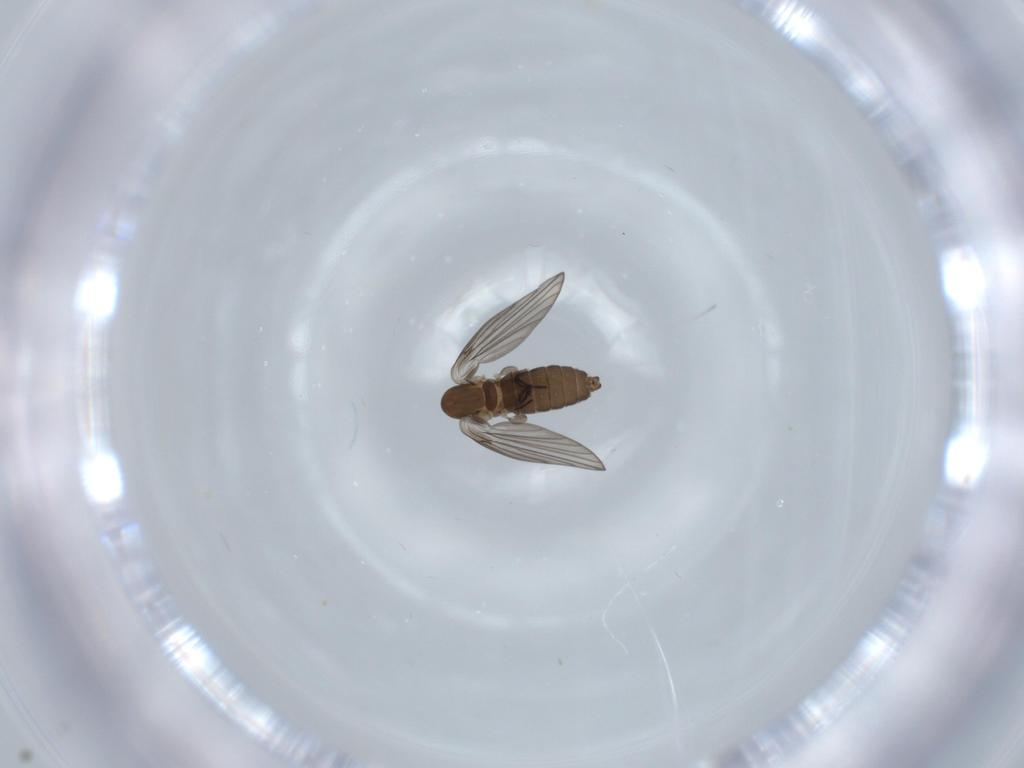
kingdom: Animalia
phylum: Arthropoda
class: Insecta
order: Diptera
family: Psychodidae
